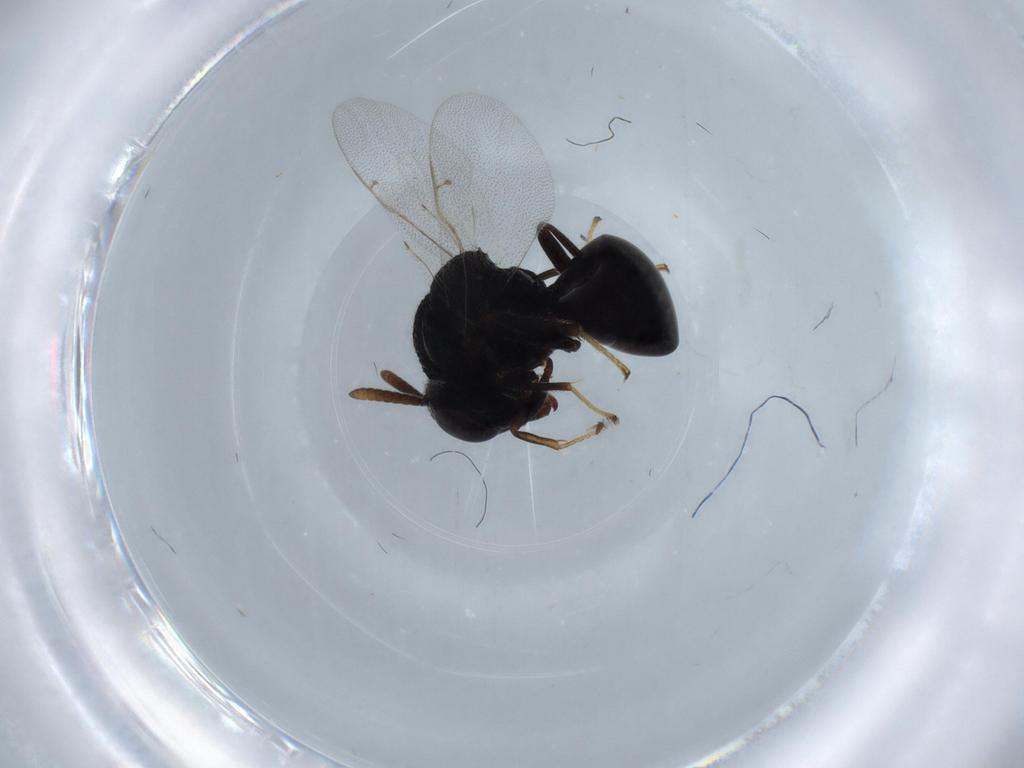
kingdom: Animalia
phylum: Arthropoda
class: Insecta
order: Hymenoptera
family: Perilampidae
